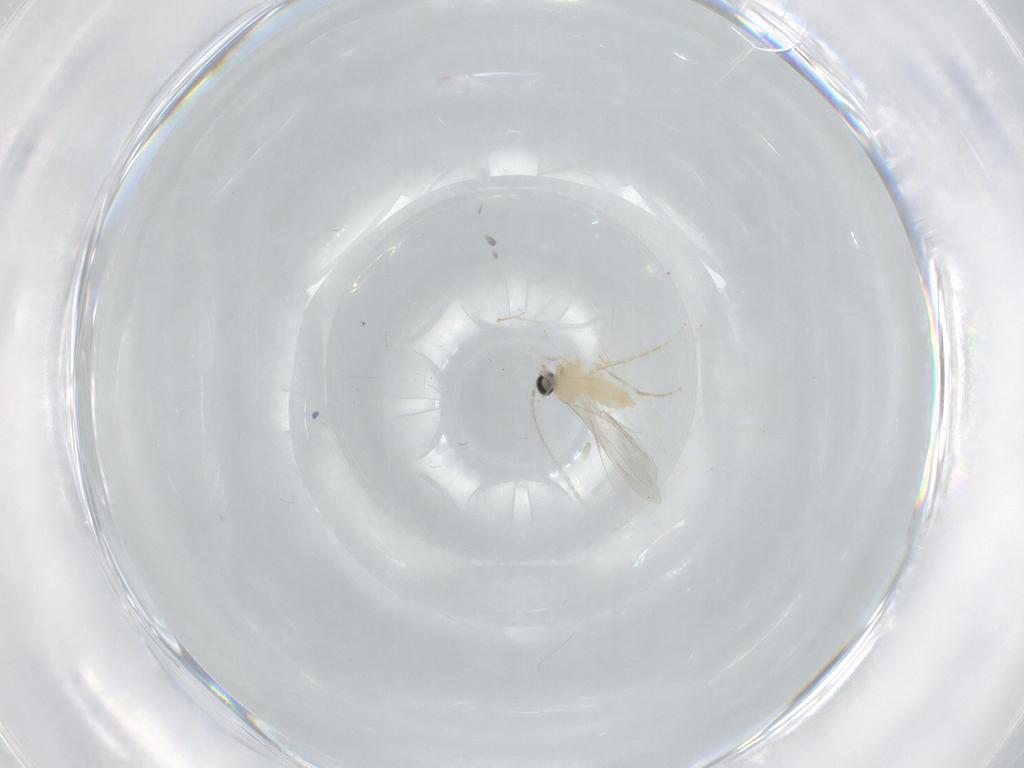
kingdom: Animalia
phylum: Arthropoda
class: Insecta
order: Diptera
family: Cecidomyiidae
